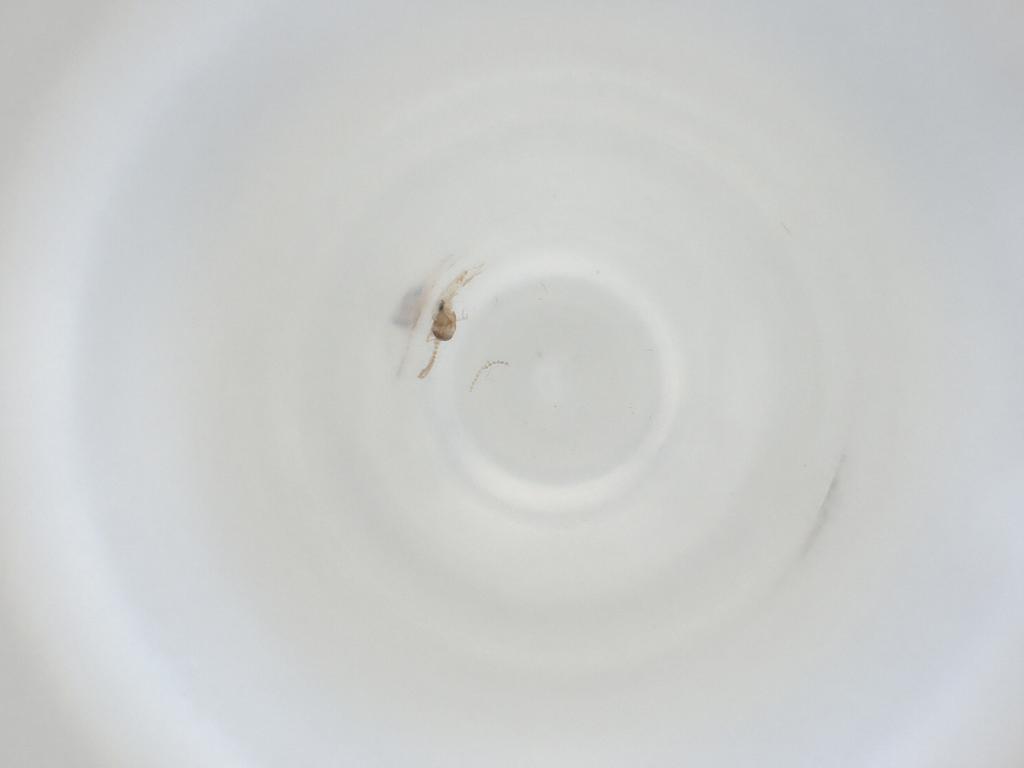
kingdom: Animalia
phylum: Arthropoda
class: Insecta
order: Diptera
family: Cecidomyiidae
